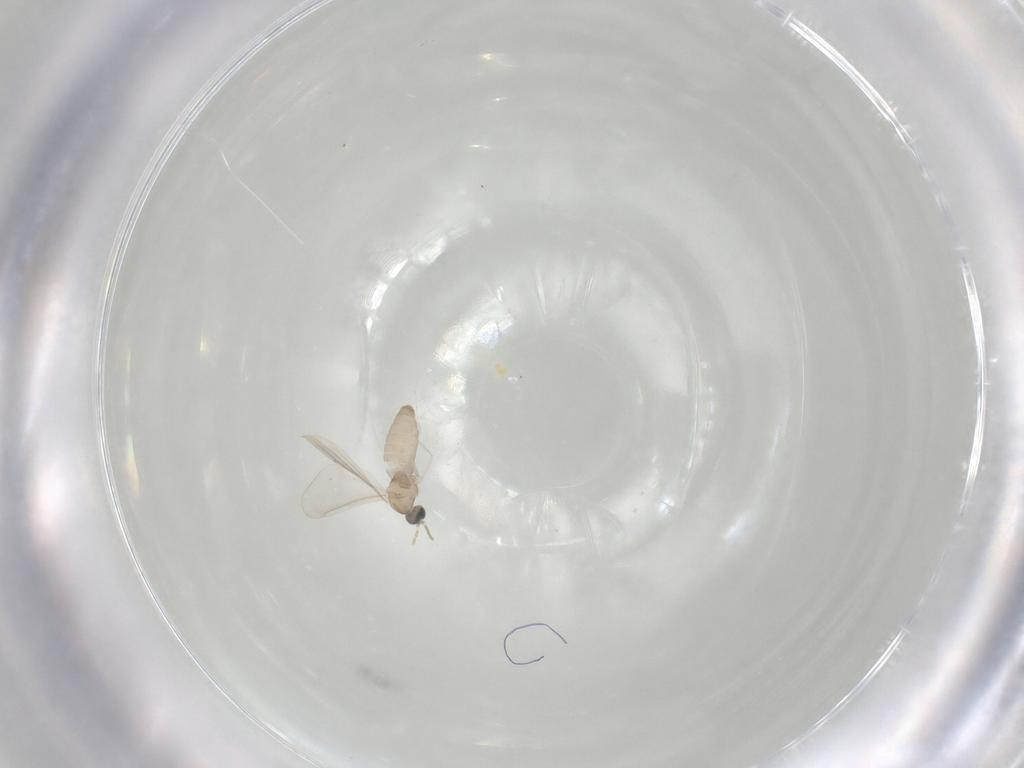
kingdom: Animalia
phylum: Arthropoda
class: Insecta
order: Diptera
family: Cecidomyiidae
